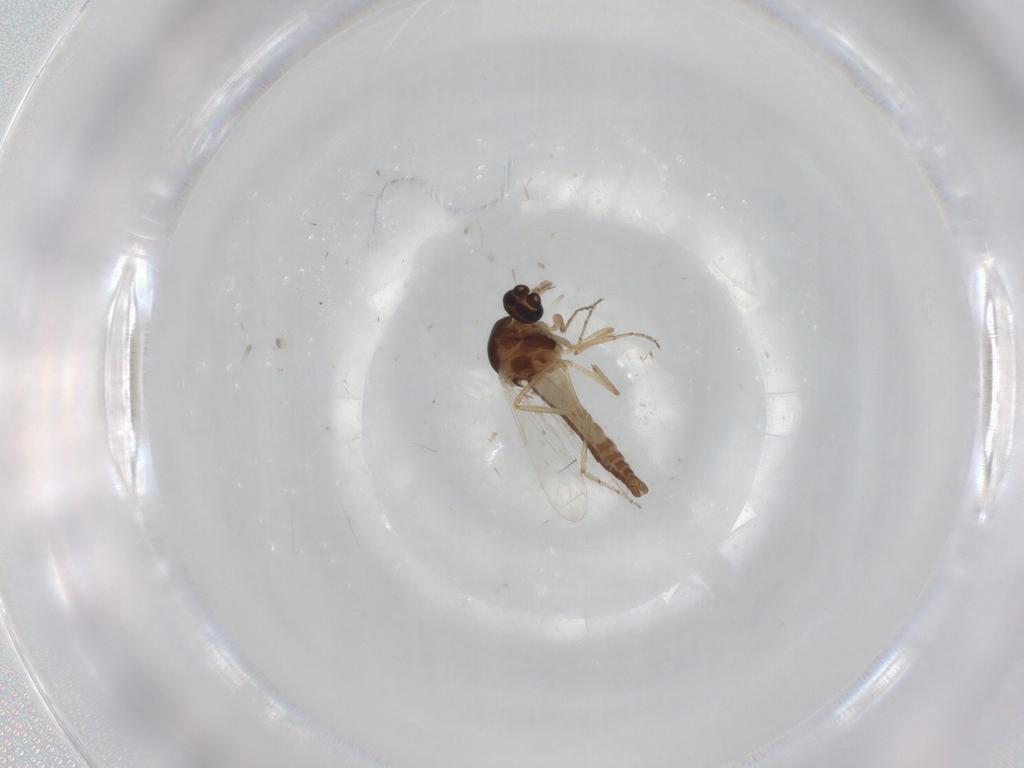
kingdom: Animalia
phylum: Arthropoda
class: Insecta
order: Diptera
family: Ceratopogonidae
